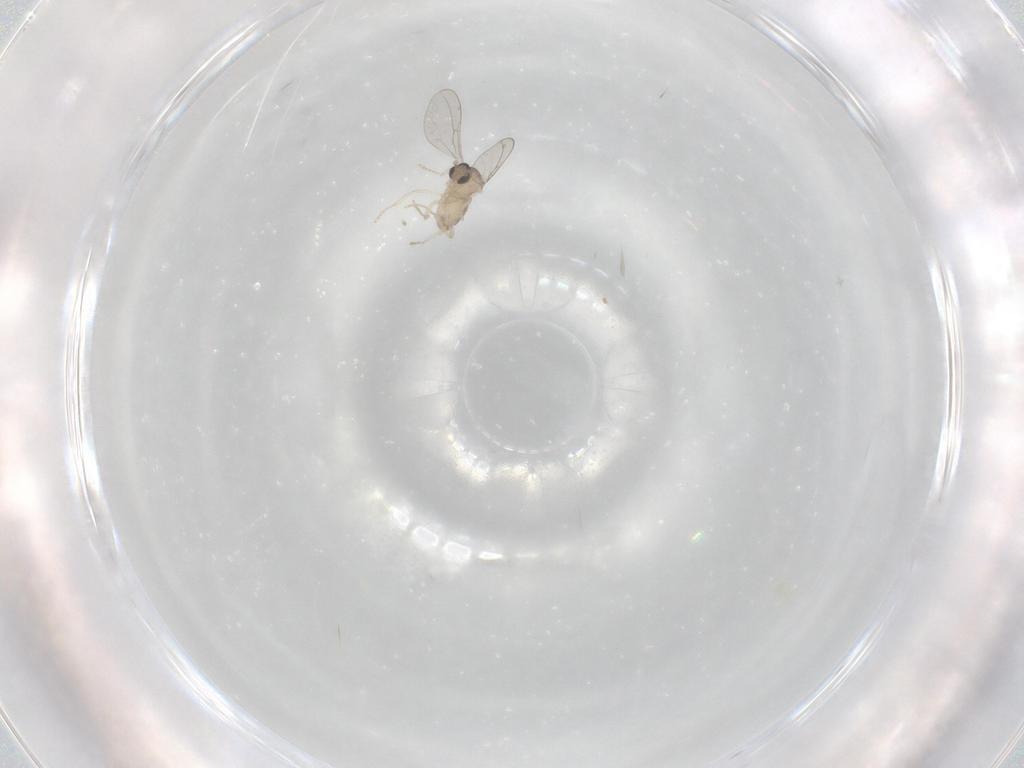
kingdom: Animalia
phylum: Arthropoda
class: Insecta
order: Diptera
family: Cecidomyiidae
